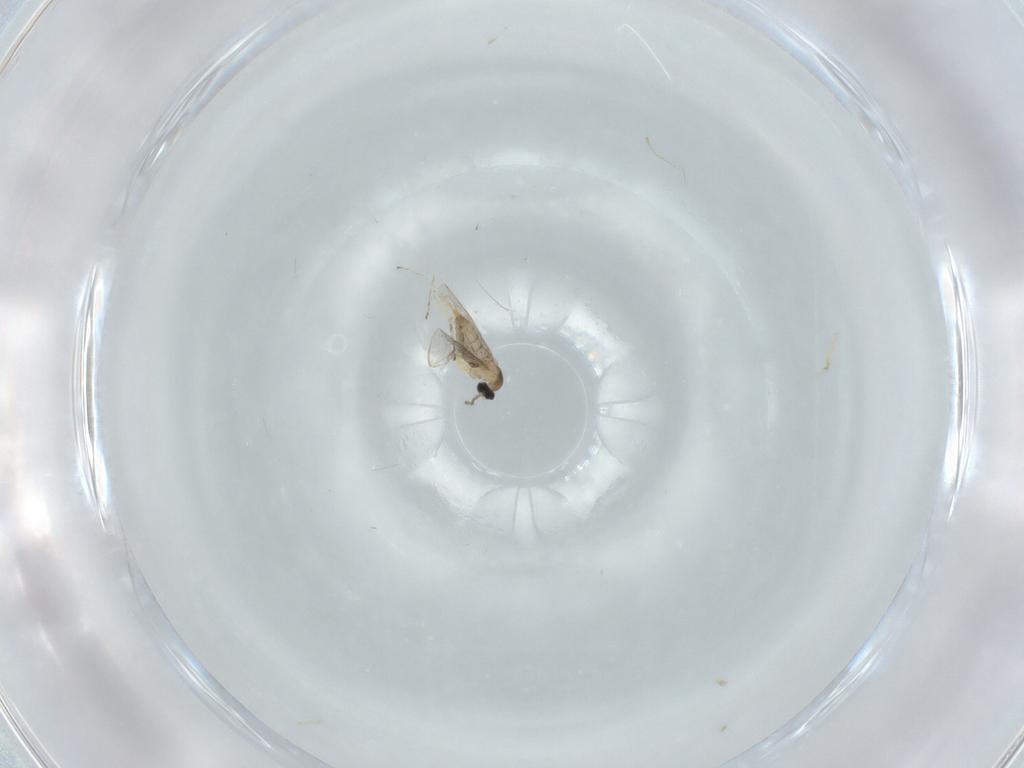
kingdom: Animalia
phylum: Arthropoda
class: Insecta
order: Diptera
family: Cecidomyiidae
